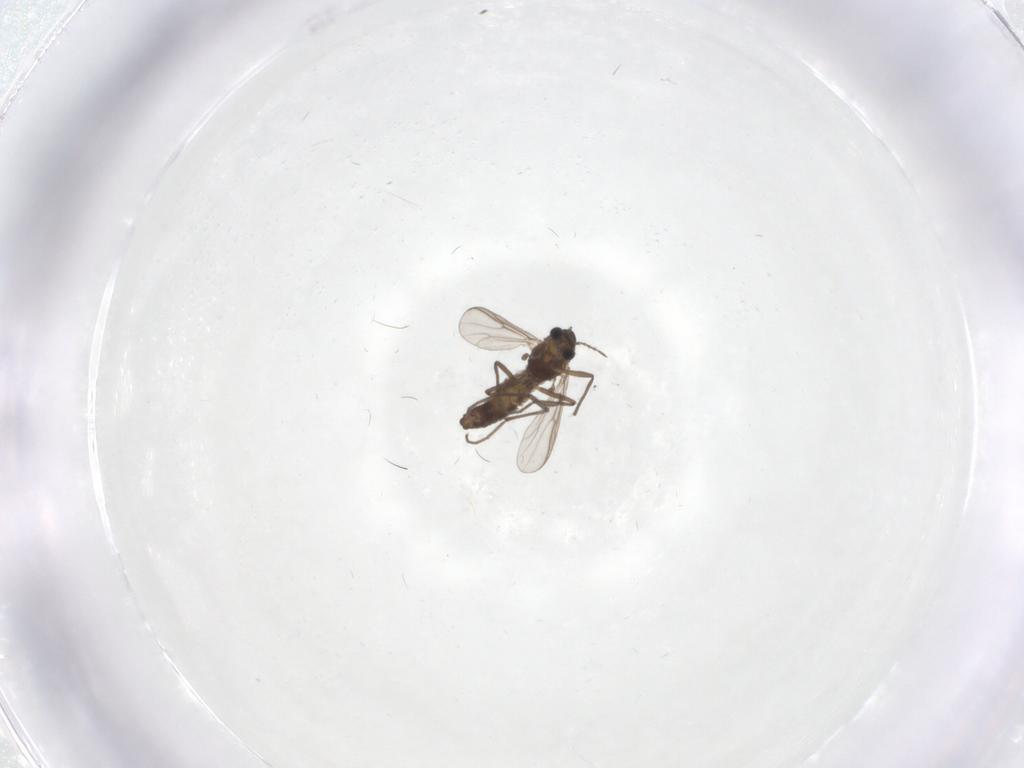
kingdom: Animalia
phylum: Arthropoda
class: Insecta
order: Diptera
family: Chironomidae
